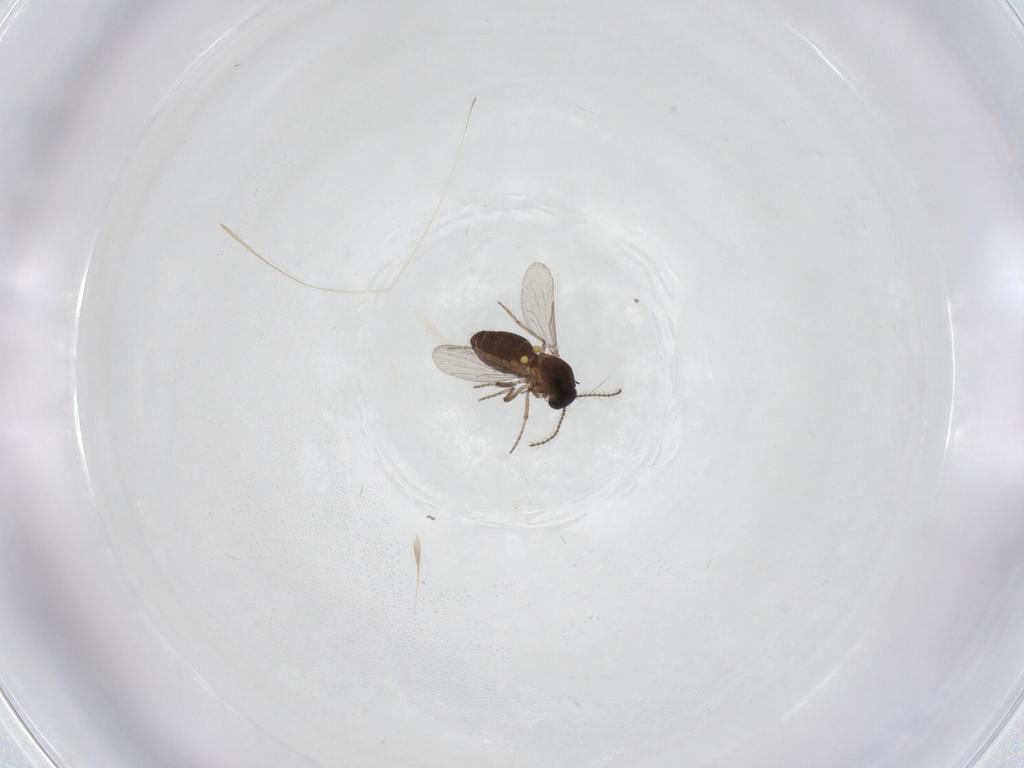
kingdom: Animalia
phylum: Arthropoda
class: Insecta
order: Diptera
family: Ceratopogonidae
